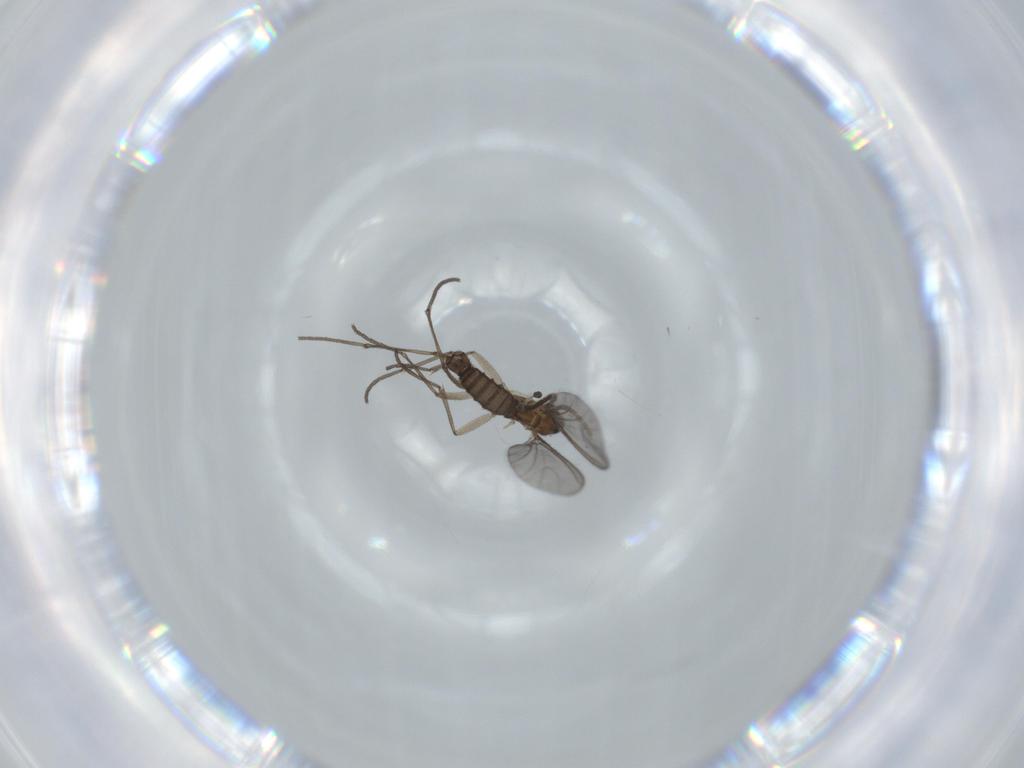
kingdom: Animalia
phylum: Arthropoda
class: Insecta
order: Diptera
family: Sciaridae
